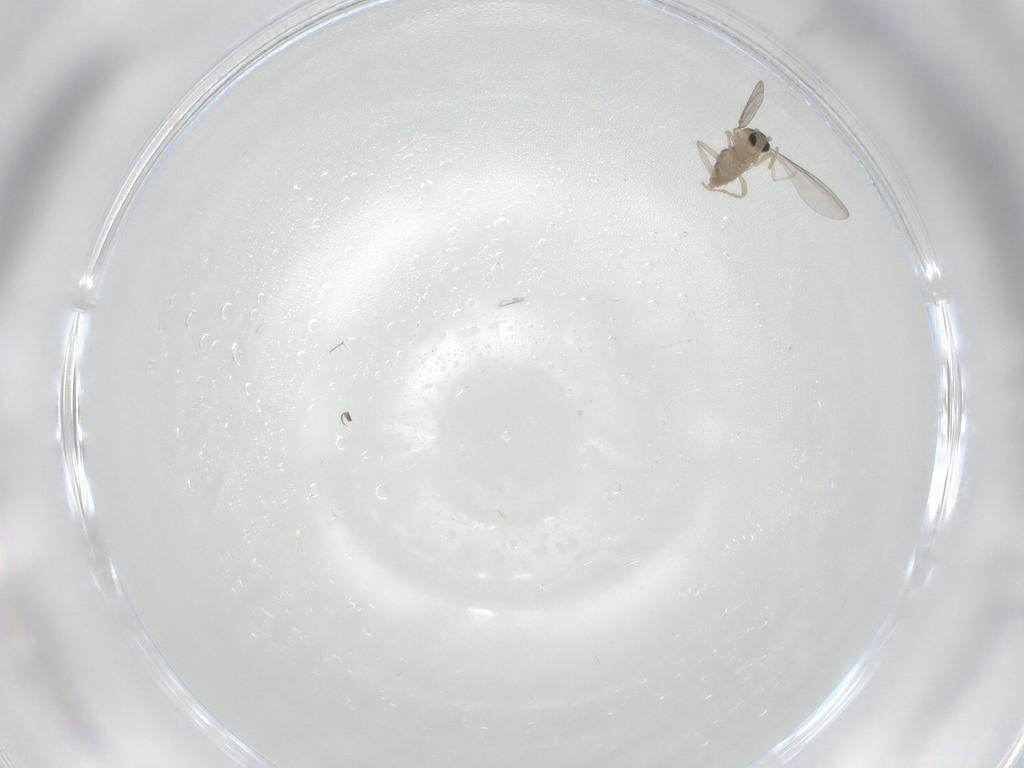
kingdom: Animalia
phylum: Arthropoda
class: Insecta
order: Diptera
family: Cecidomyiidae
